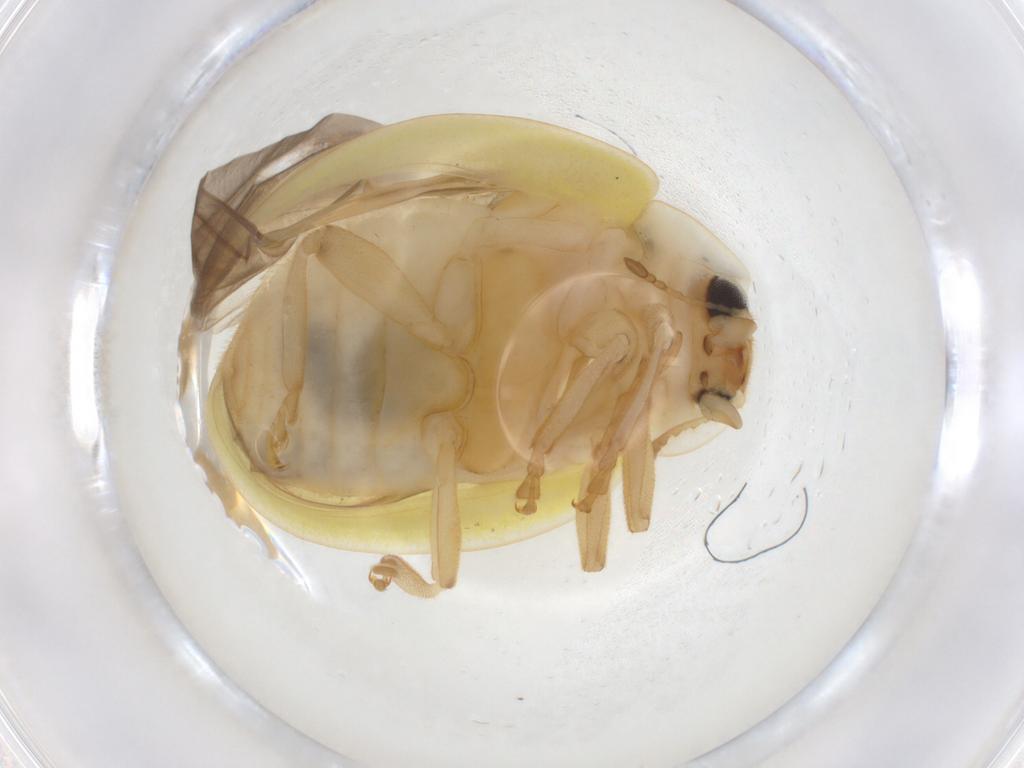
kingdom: Animalia
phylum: Arthropoda
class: Insecta
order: Coleoptera
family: Coccinellidae
